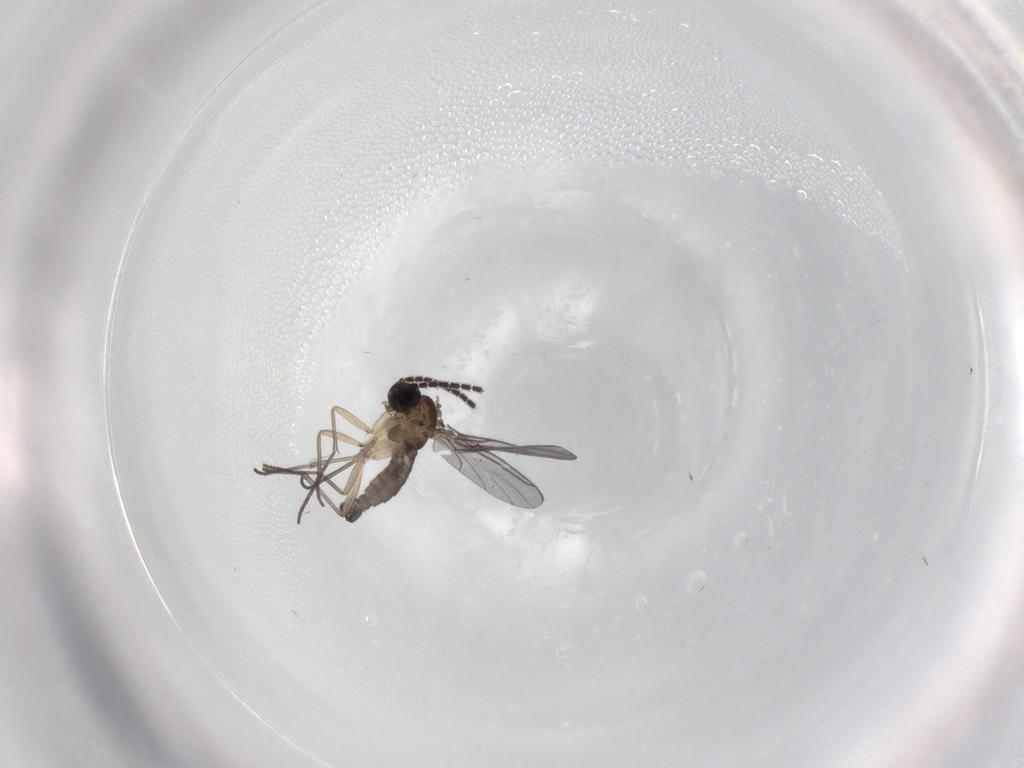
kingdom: Animalia
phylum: Arthropoda
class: Insecta
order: Diptera
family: Sciaridae
